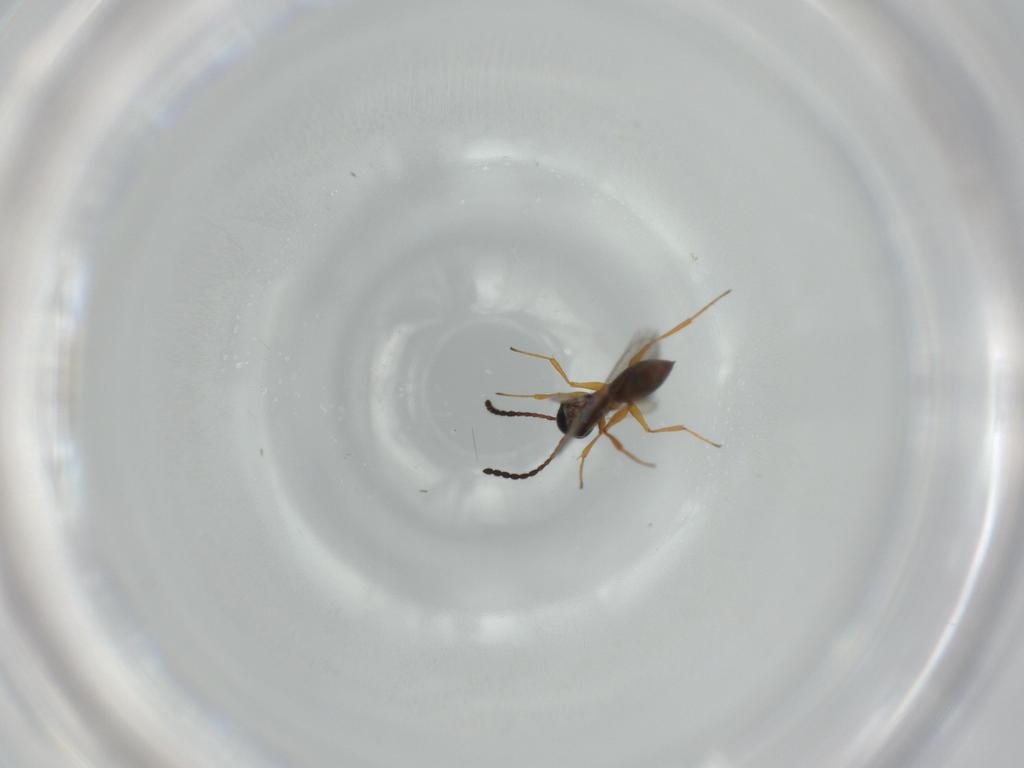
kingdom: Animalia
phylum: Arthropoda
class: Insecta
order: Hymenoptera
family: Figitidae
